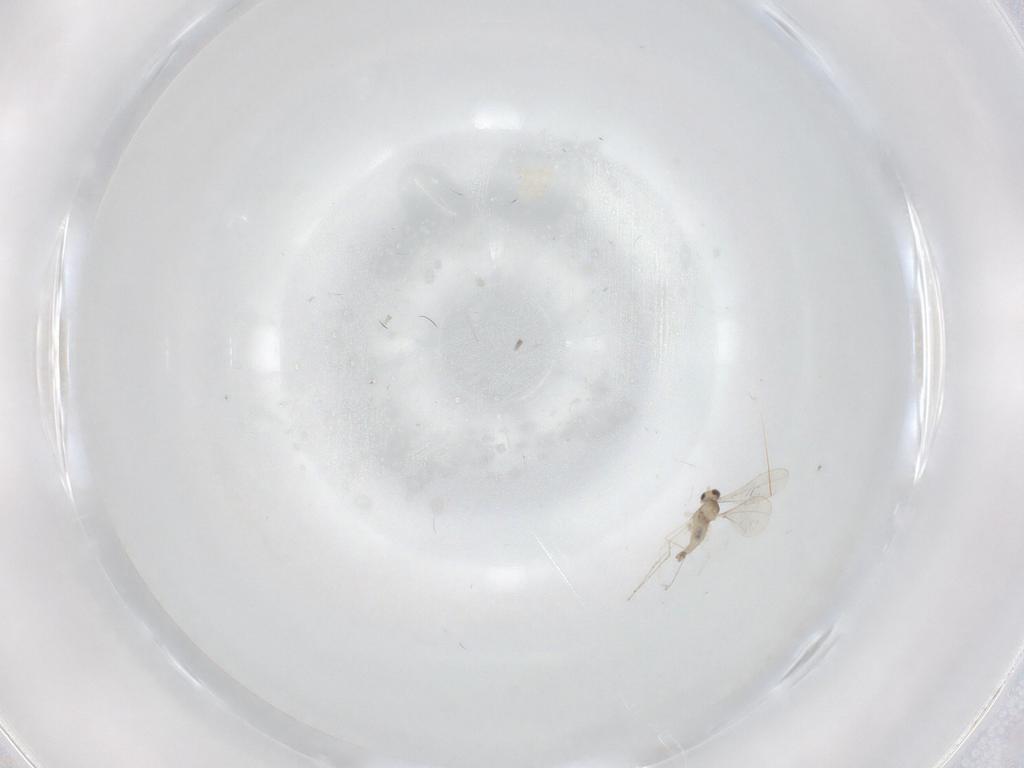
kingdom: Animalia
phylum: Arthropoda
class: Insecta
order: Diptera
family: Cecidomyiidae
